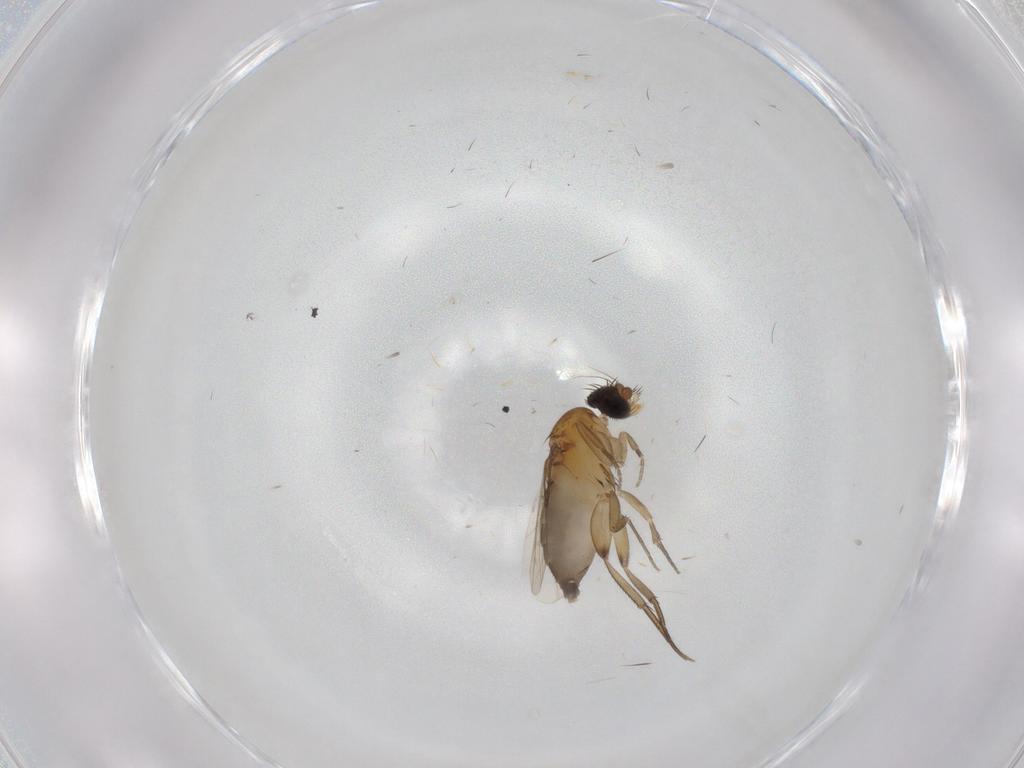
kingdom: Animalia
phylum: Arthropoda
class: Insecta
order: Diptera
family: Phoridae
